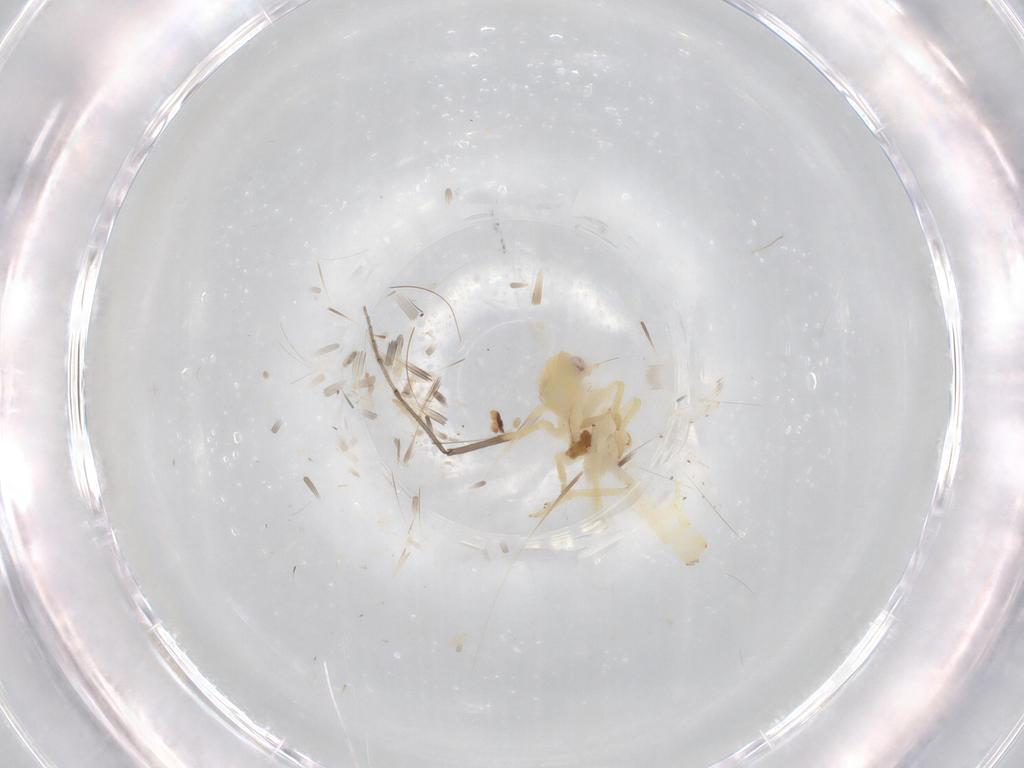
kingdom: Animalia
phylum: Arthropoda
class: Insecta
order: Hemiptera
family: Tropiduchidae
